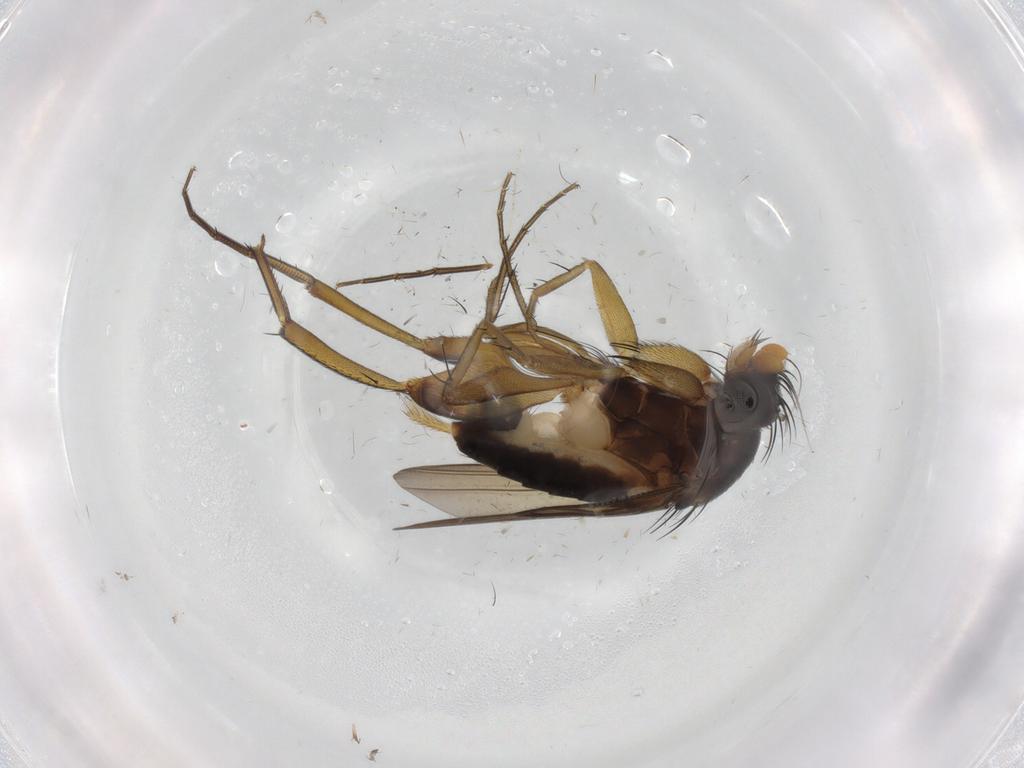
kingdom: Animalia
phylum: Arthropoda
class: Insecta
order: Diptera
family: Phoridae
